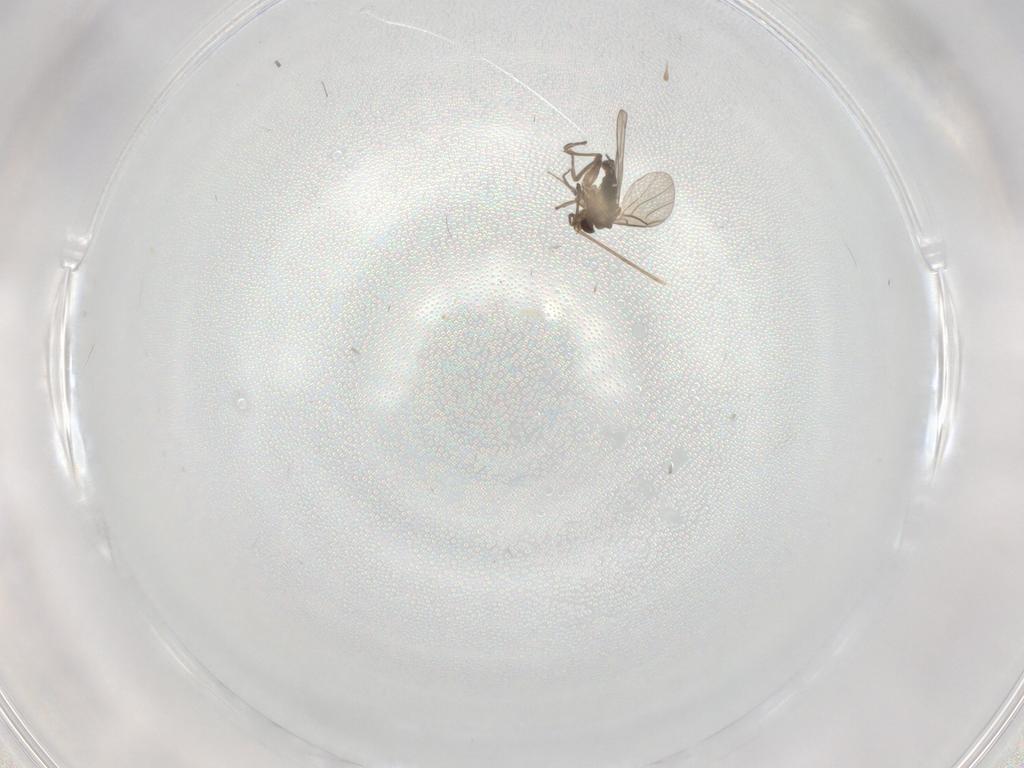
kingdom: Animalia
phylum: Arthropoda
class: Insecta
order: Diptera
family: Phoridae
